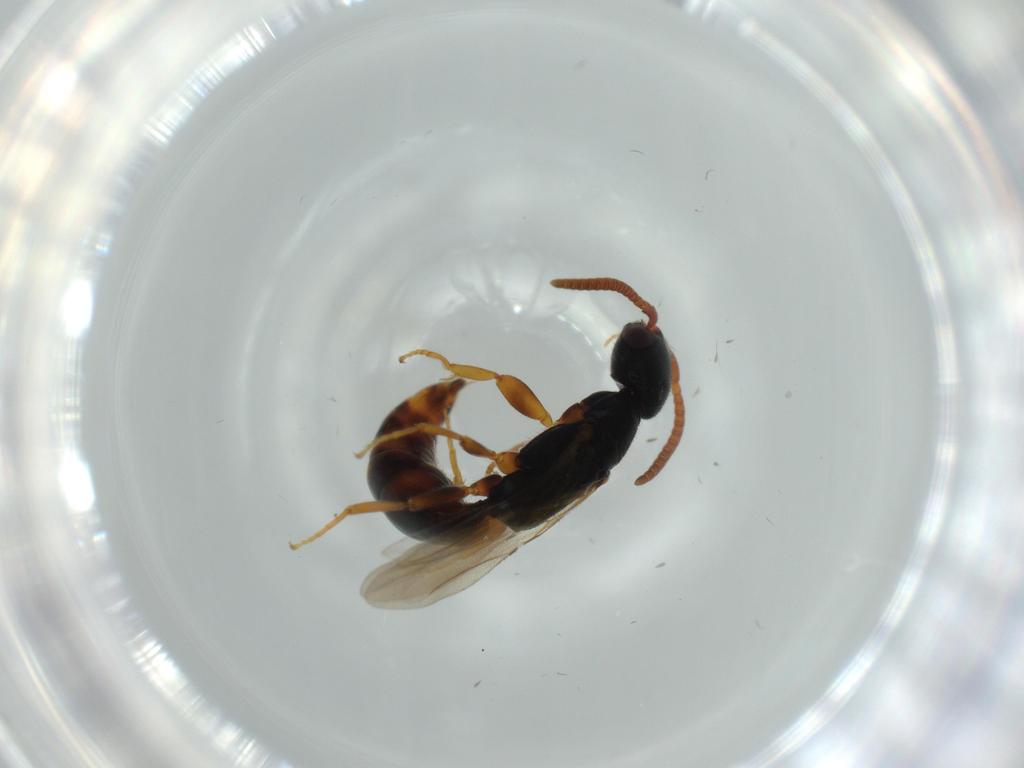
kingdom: Animalia
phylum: Arthropoda
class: Insecta
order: Hymenoptera
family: Bethylidae
